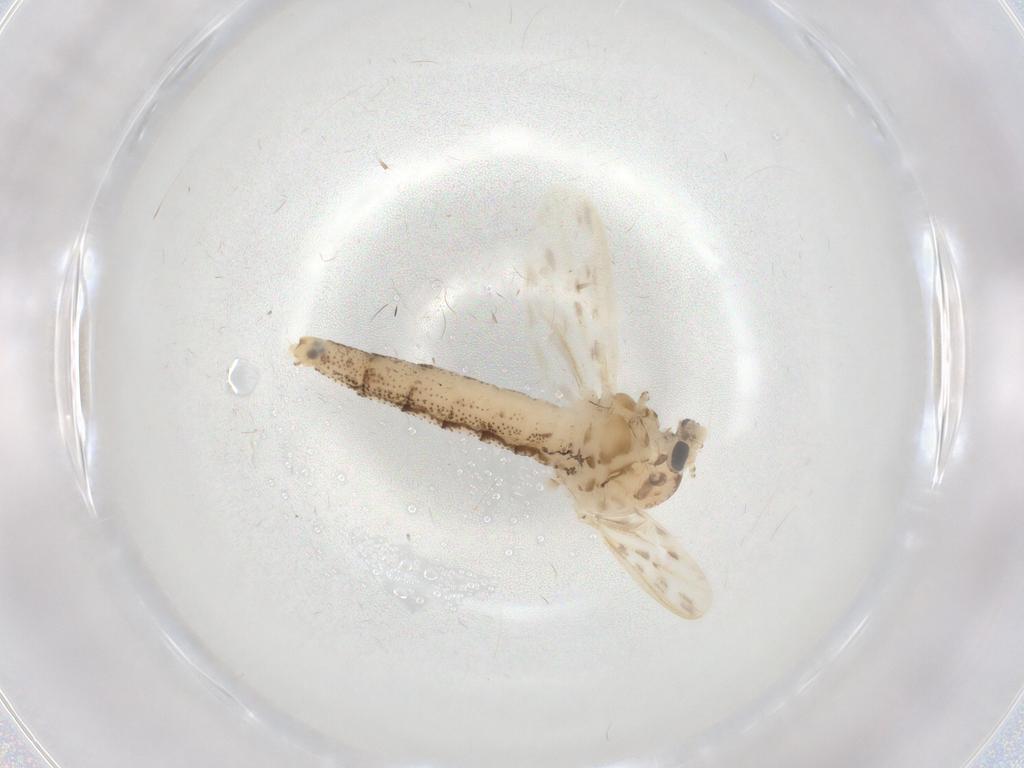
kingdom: Animalia
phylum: Arthropoda
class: Insecta
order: Diptera
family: Chaoboridae
